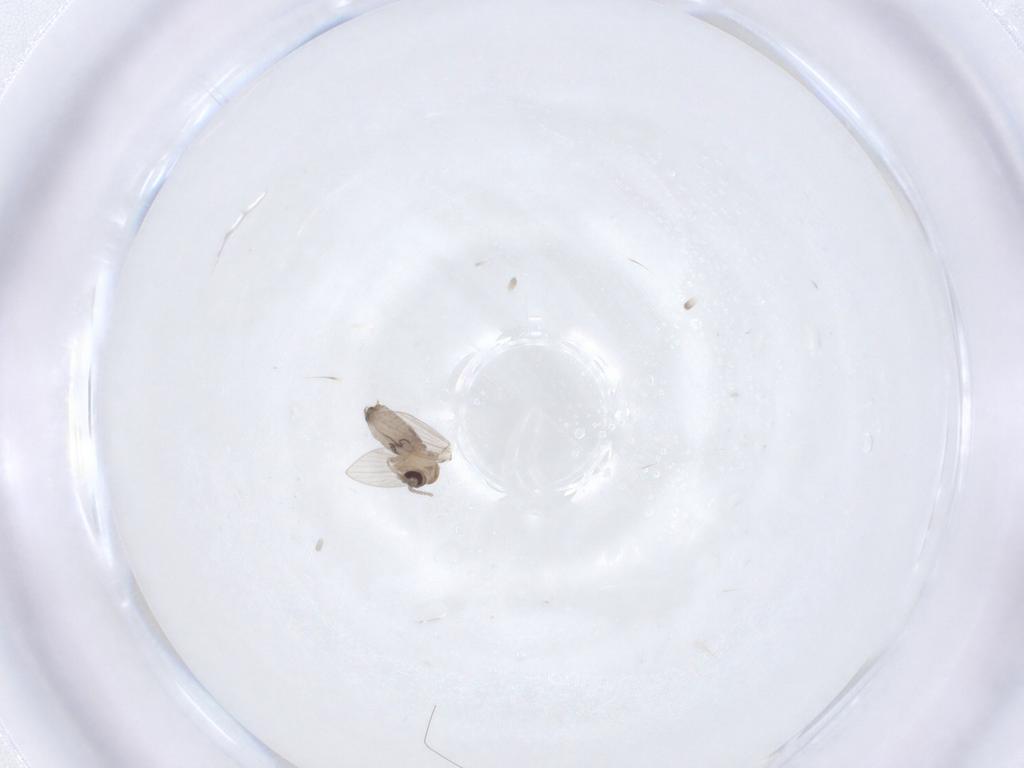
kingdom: Animalia
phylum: Arthropoda
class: Insecta
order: Diptera
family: Psychodidae
